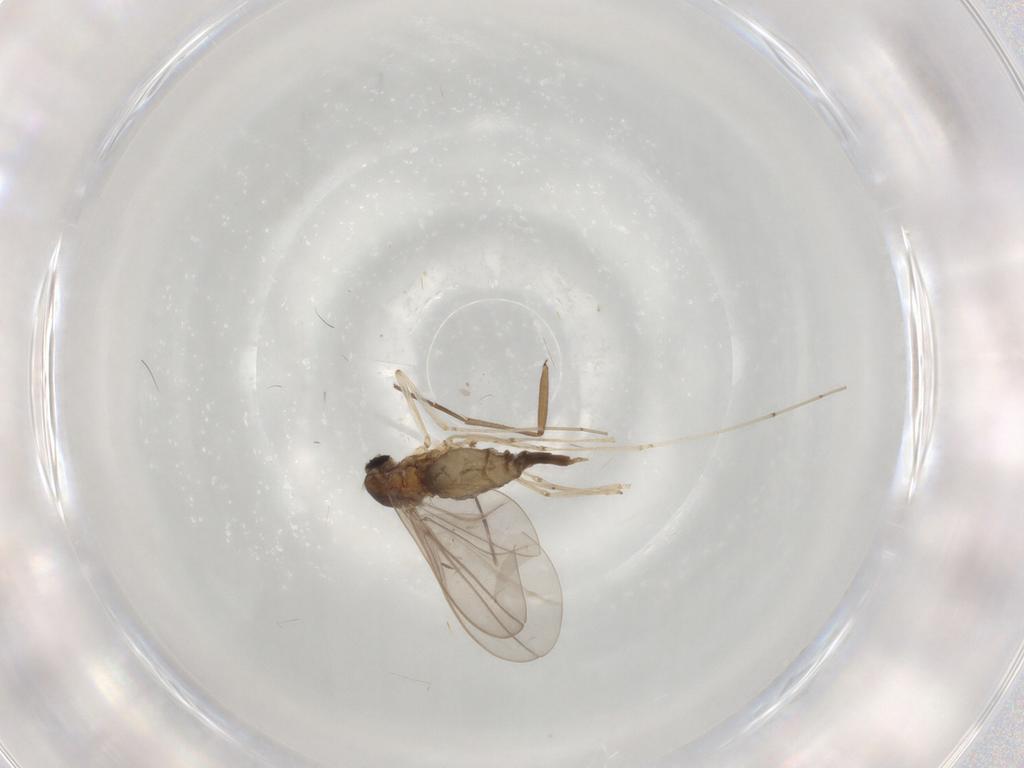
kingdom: Animalia
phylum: Arthropoda
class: Insecta
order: Diptera
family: Cecidomyiidae
